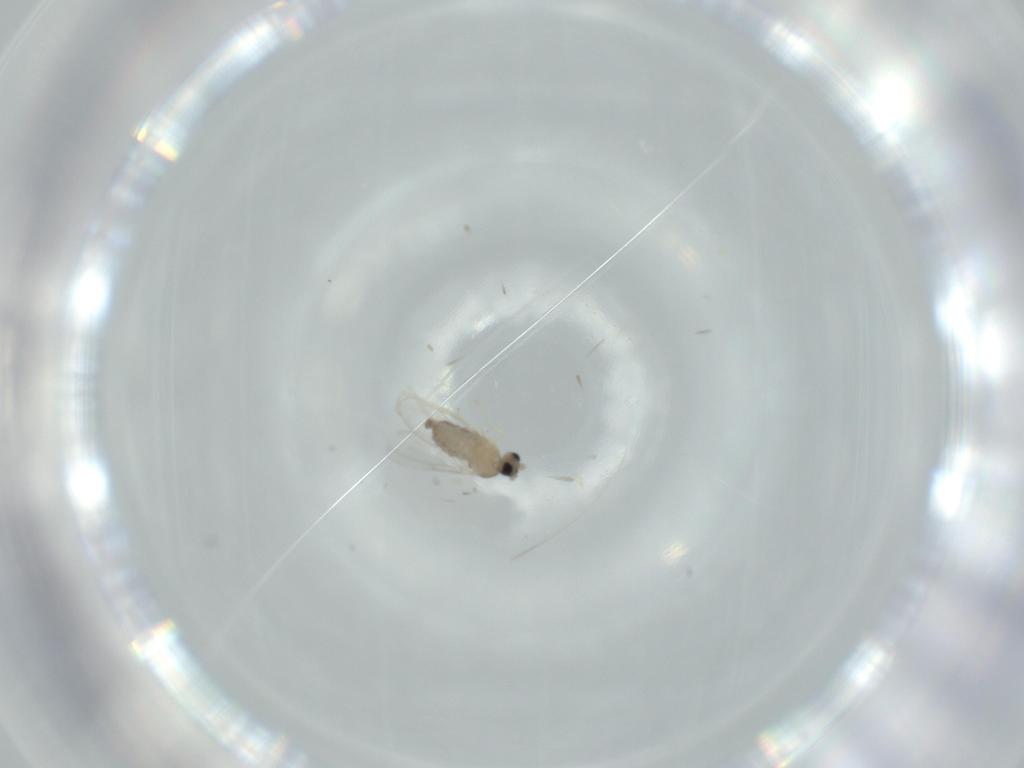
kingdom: Animalia
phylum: Arthropoda
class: Insecta
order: Diptera
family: Cecidomyiidae
